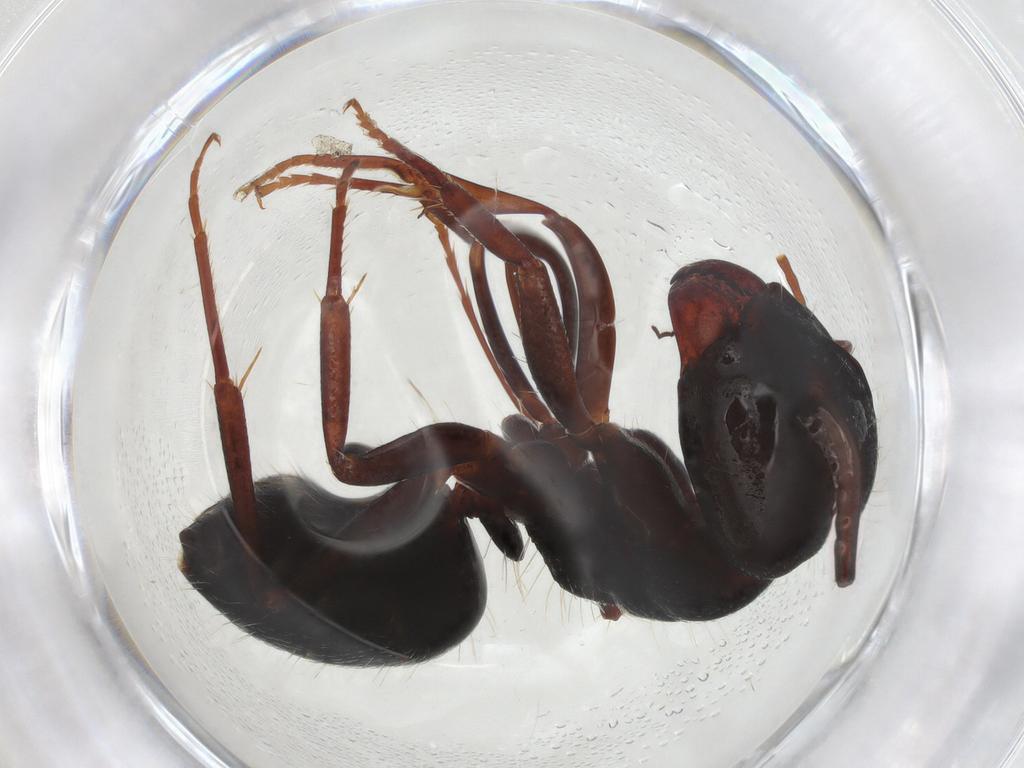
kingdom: Animalia
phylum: Arthropoda
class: Insecta
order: Hymenoptera
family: Formicidae
